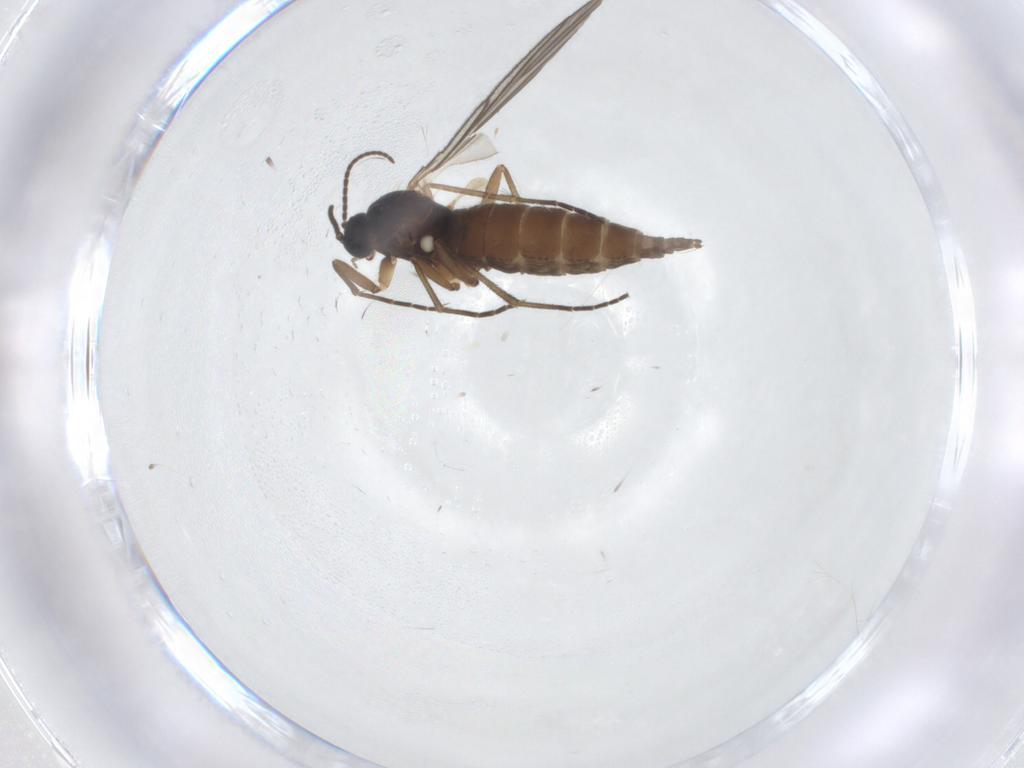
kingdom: Animalia
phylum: Arthropoda
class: Insecta
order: Diptera
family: Sciaridae
